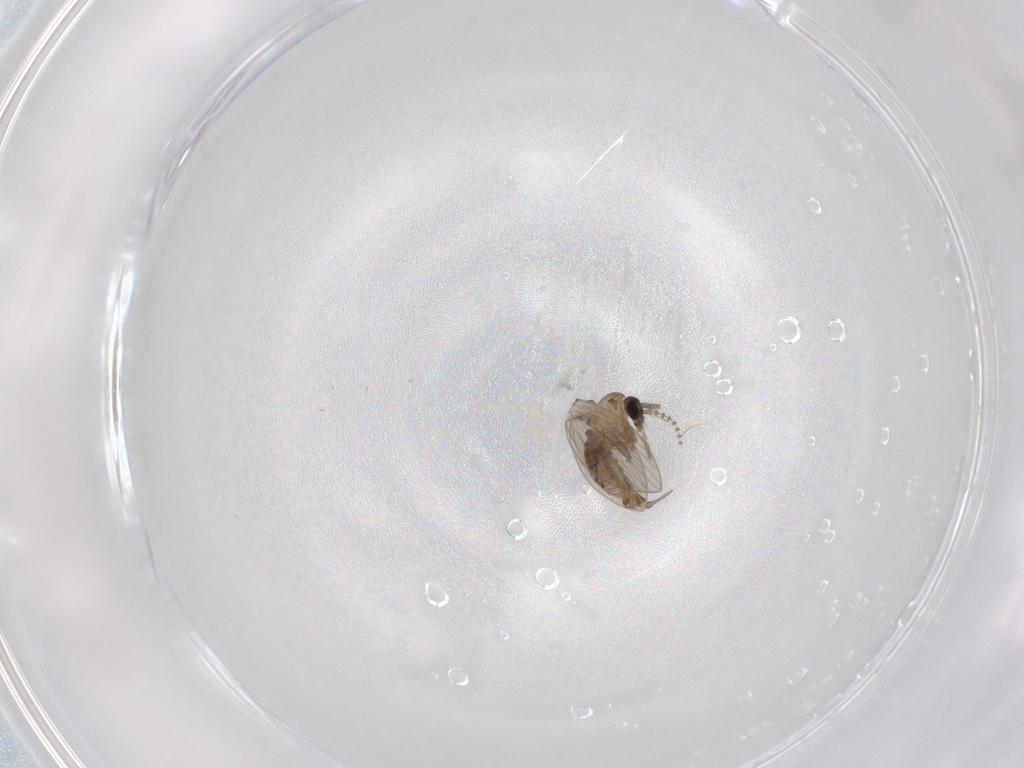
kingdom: Animalia
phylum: Arthropoda
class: Insecta
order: Diptera
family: Psychodidae
